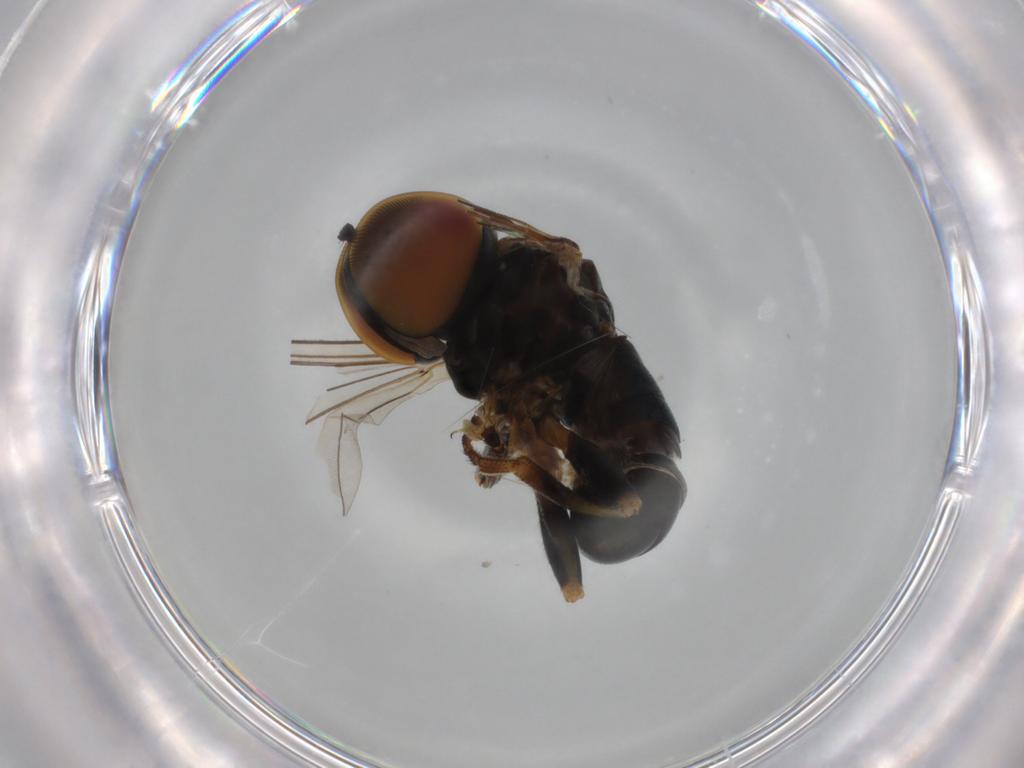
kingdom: Animalia
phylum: Arthropoda
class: Insecta
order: Diptera
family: Pipunculidae
